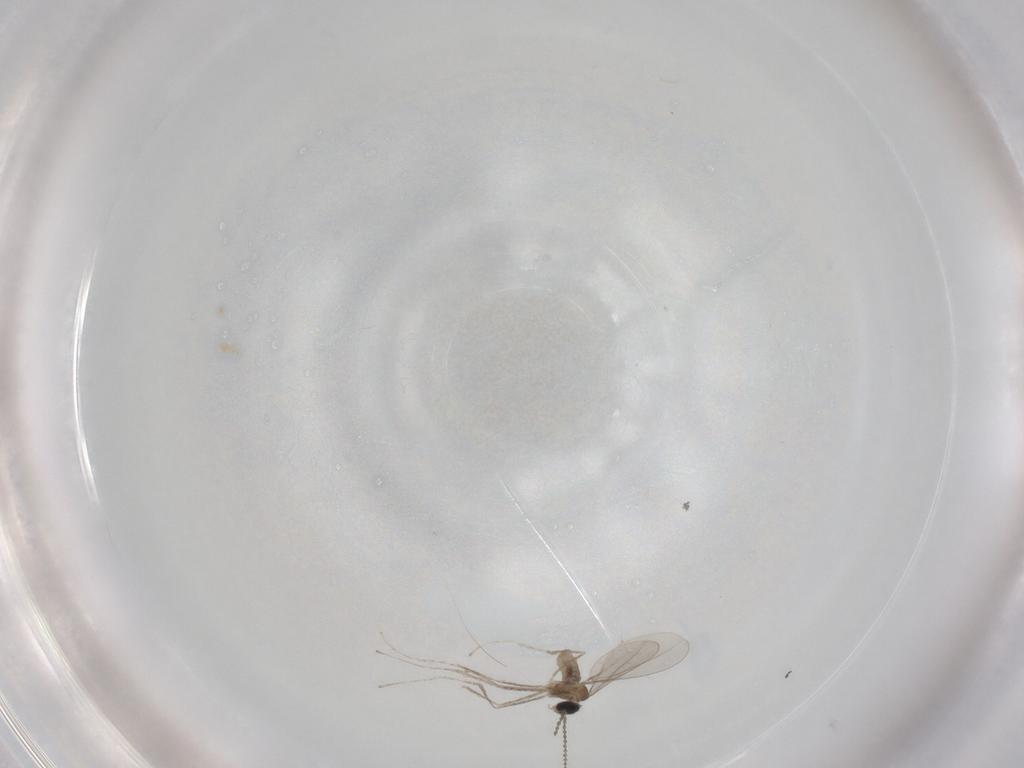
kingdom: Animalia
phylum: Arthropoda
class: Insecta
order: Diptera
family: Cecidomyiidae
